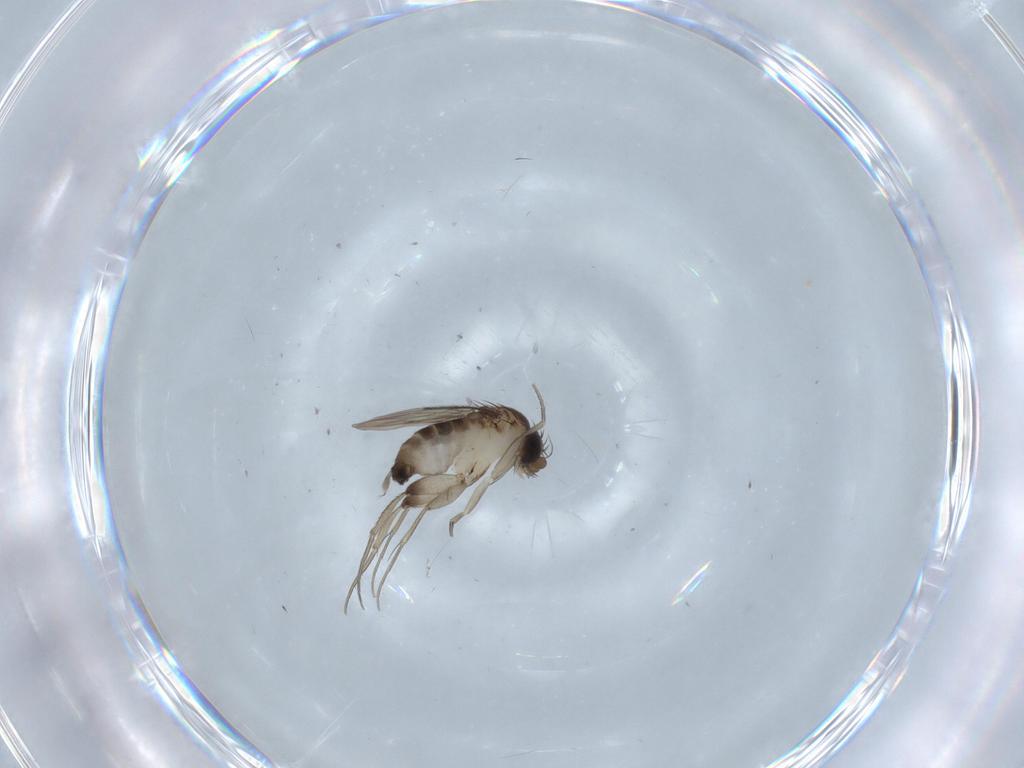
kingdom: Animalia
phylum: Arthropoda
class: Insecta
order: Diptera
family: Phoridae
